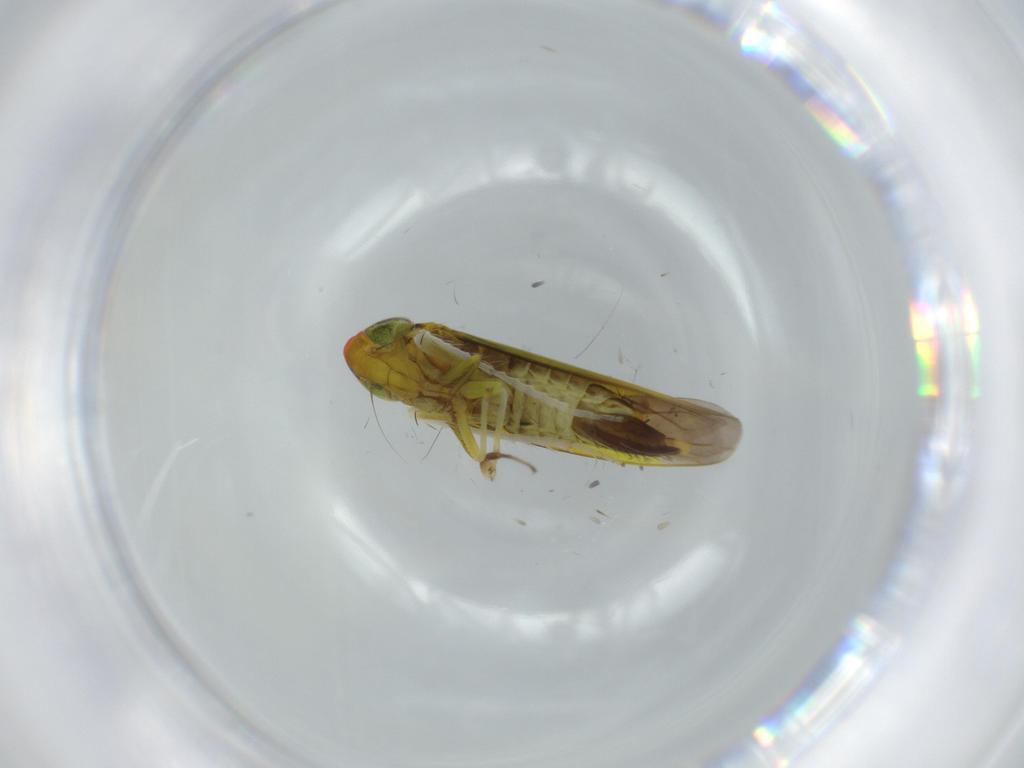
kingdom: Animalia
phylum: Arthropoda
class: Insecta
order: Hemiptera
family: Cicadellidae
